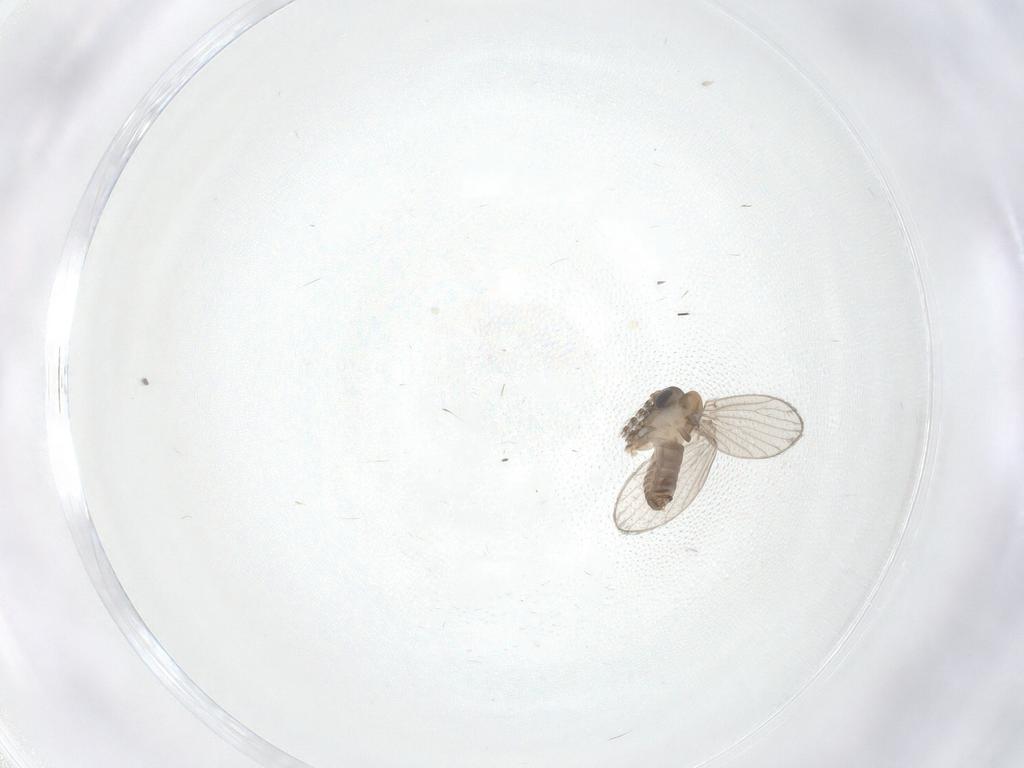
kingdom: Animalia
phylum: Arthropoda
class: Insecta
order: Diptera
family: Psychodidae
